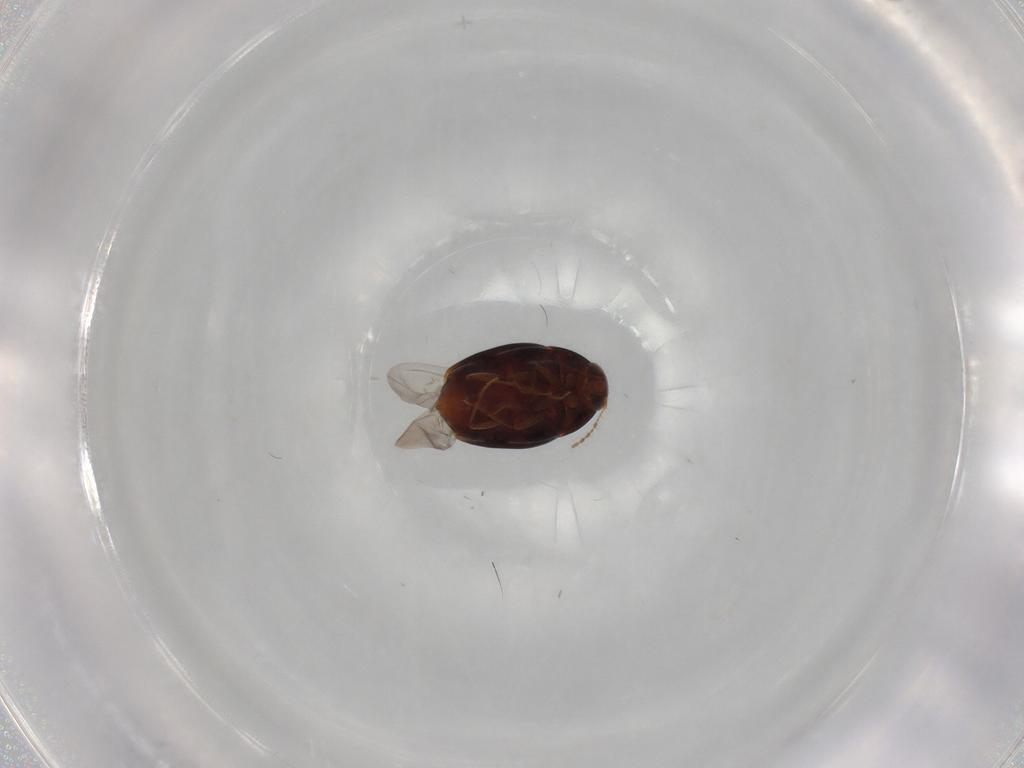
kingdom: Animalia
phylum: Arthropoda
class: Insecta
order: Coleoptera
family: Staphylinidae
